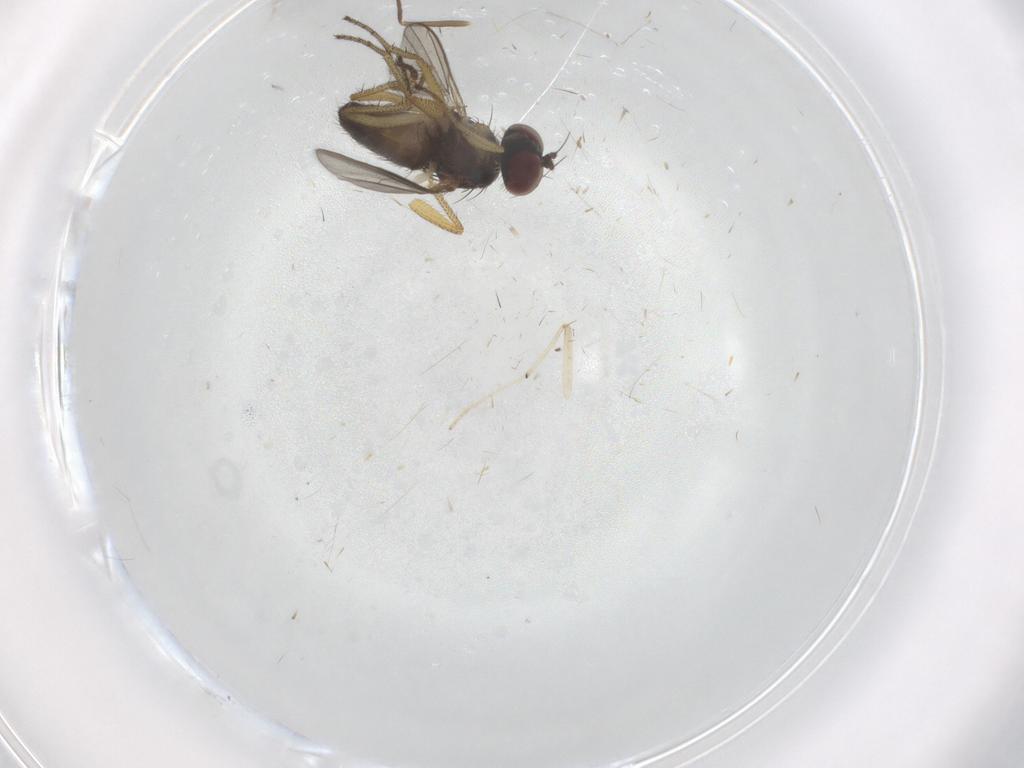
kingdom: Animalia
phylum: Arthropoda
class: Insecta
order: Diptera
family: Chironomidae
